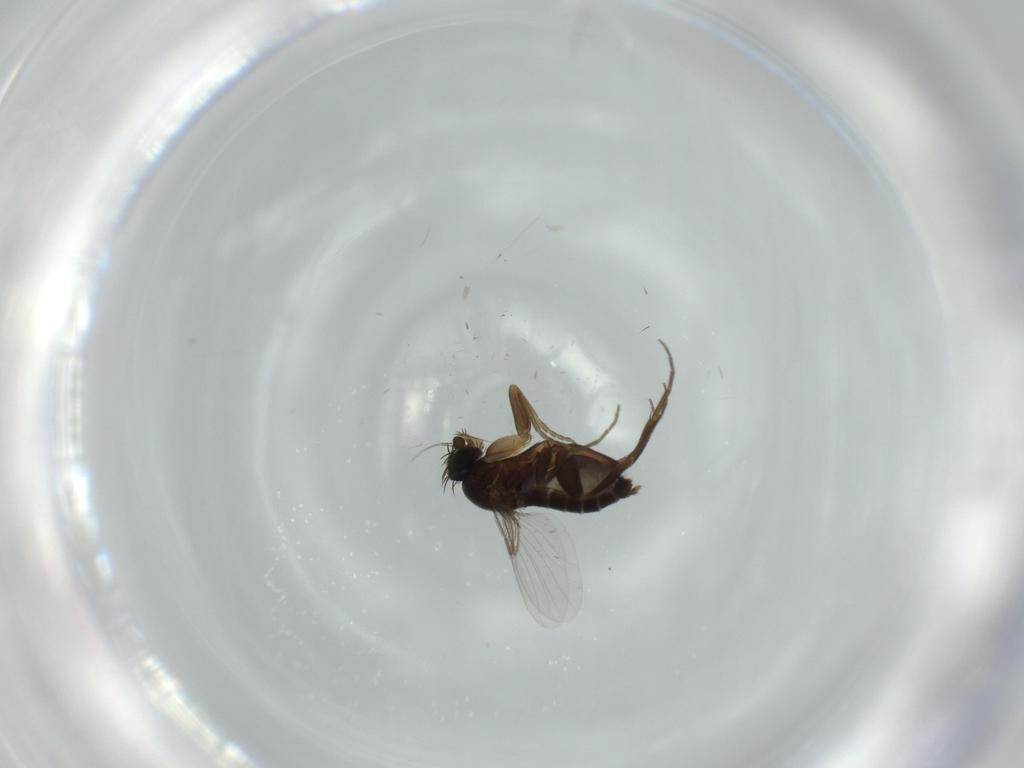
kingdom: Animalia
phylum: Arthropoda
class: Insecta
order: Diptera
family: Phoridae
